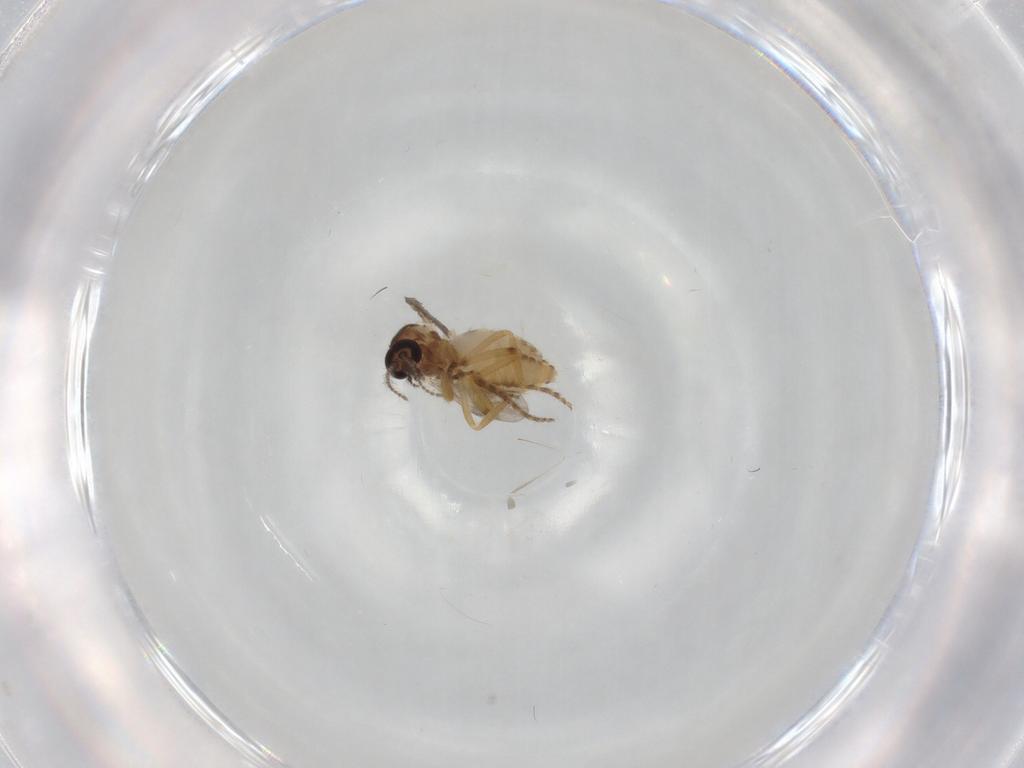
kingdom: Animalia
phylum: Arthropoda
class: Insecta
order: Diptera
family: Ceratopogonidae
